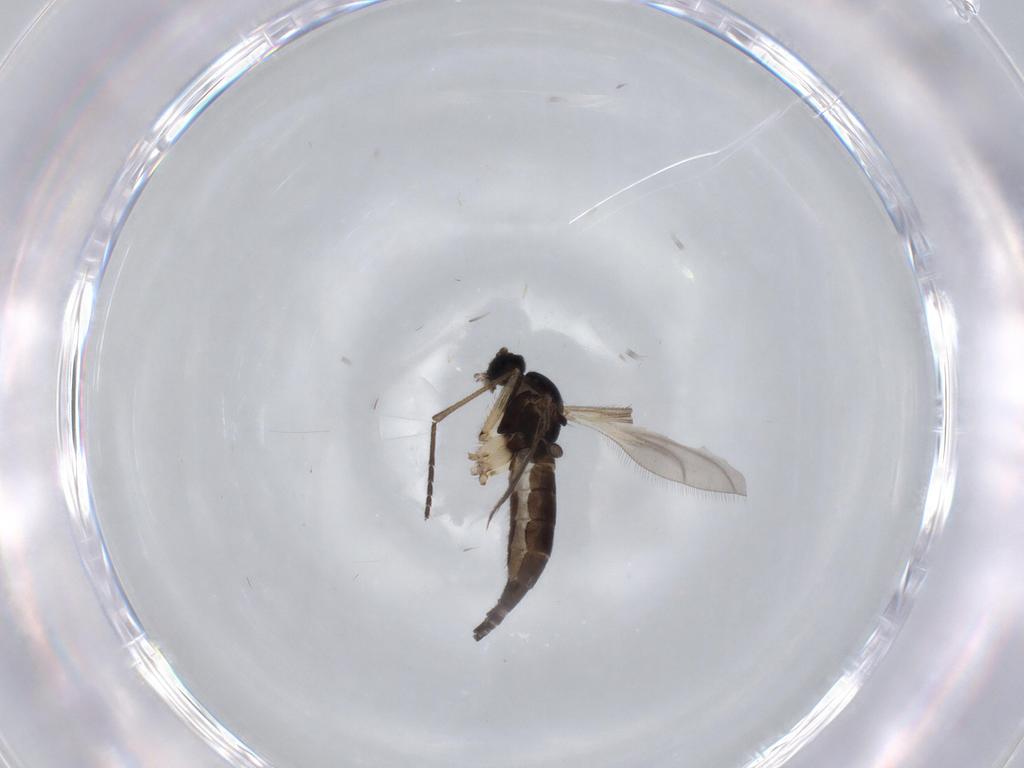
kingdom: Animalia
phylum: Arthropoda
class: Insecta
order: Diptera
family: Sciaridae
